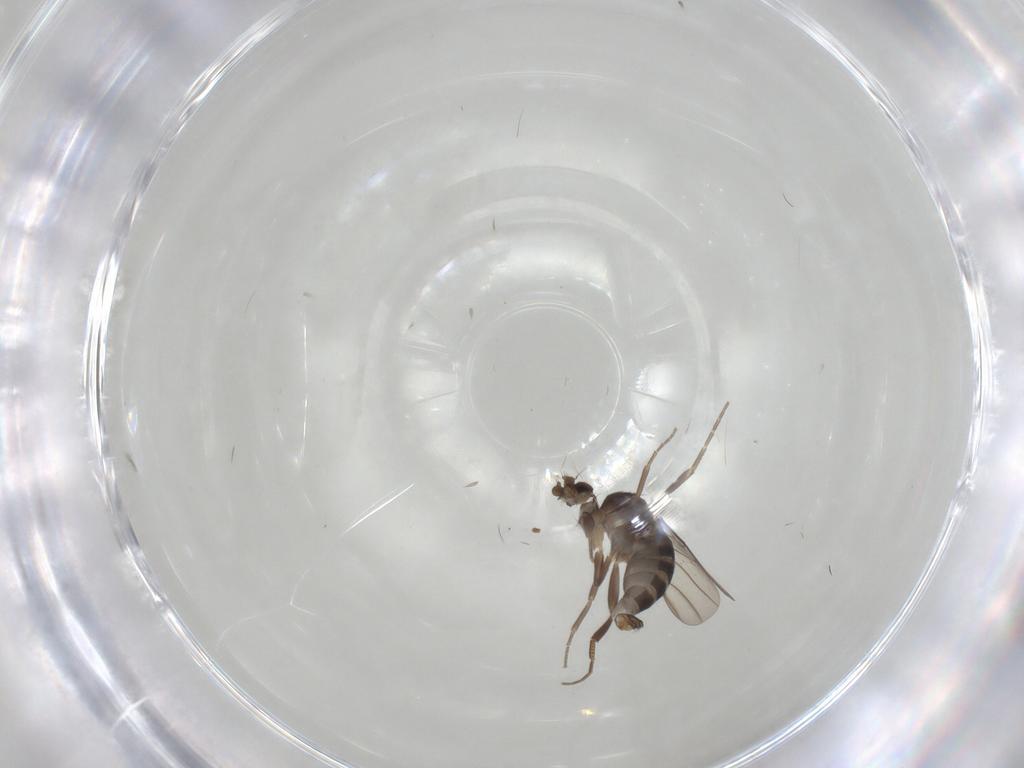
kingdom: Animalia
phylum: Arthropoda
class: Insecta
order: Diptera
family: Phoridae
